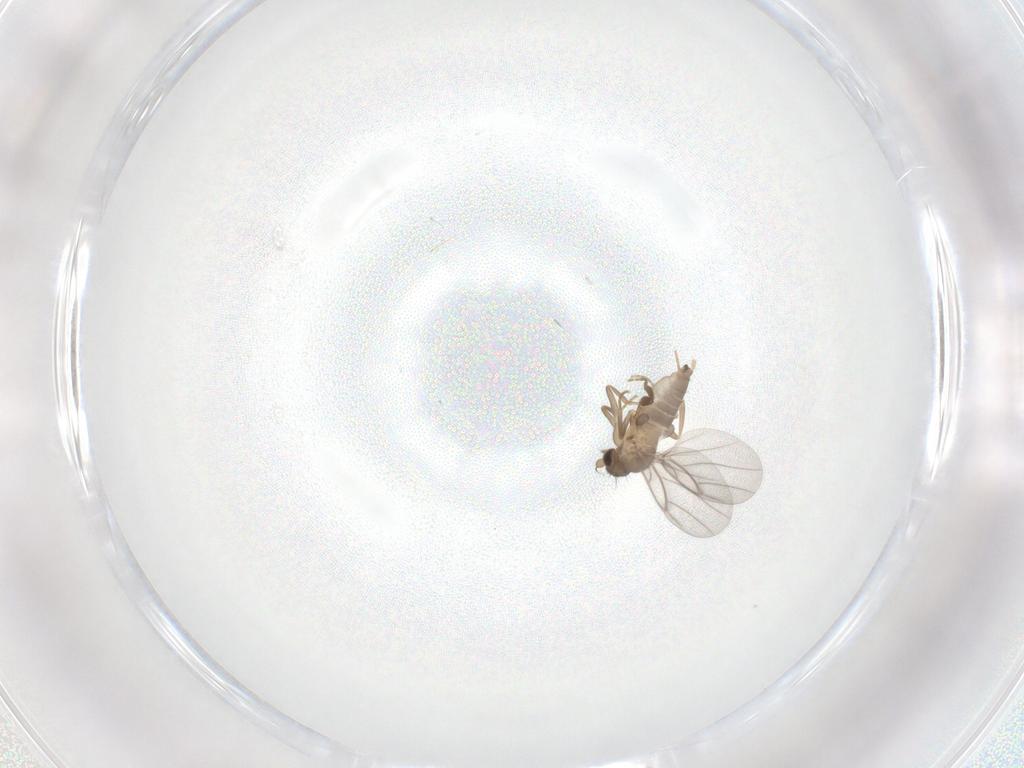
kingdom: Animalia
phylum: Arthropoda
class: Insecta
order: Diptera
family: Limoniidae
